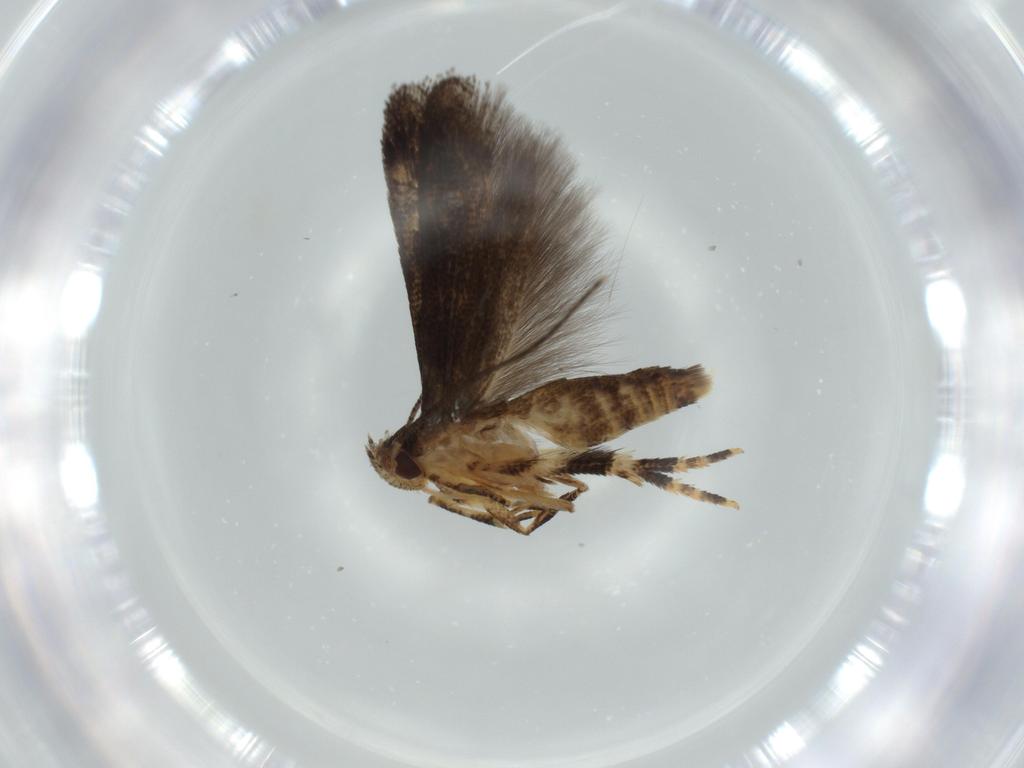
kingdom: Animalia
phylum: Arthropoda
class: Insecta
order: Lepidoptera
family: Momphidae
